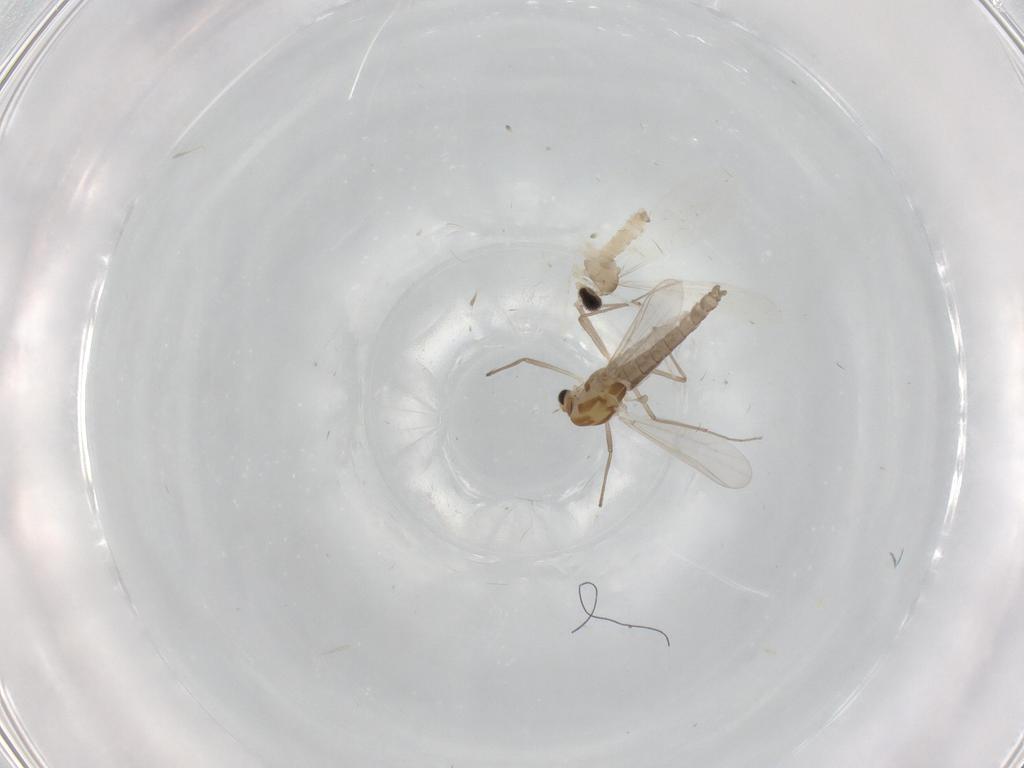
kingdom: Animalia
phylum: Arthropoda
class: Insecta
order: Diptera
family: Chironomidae
